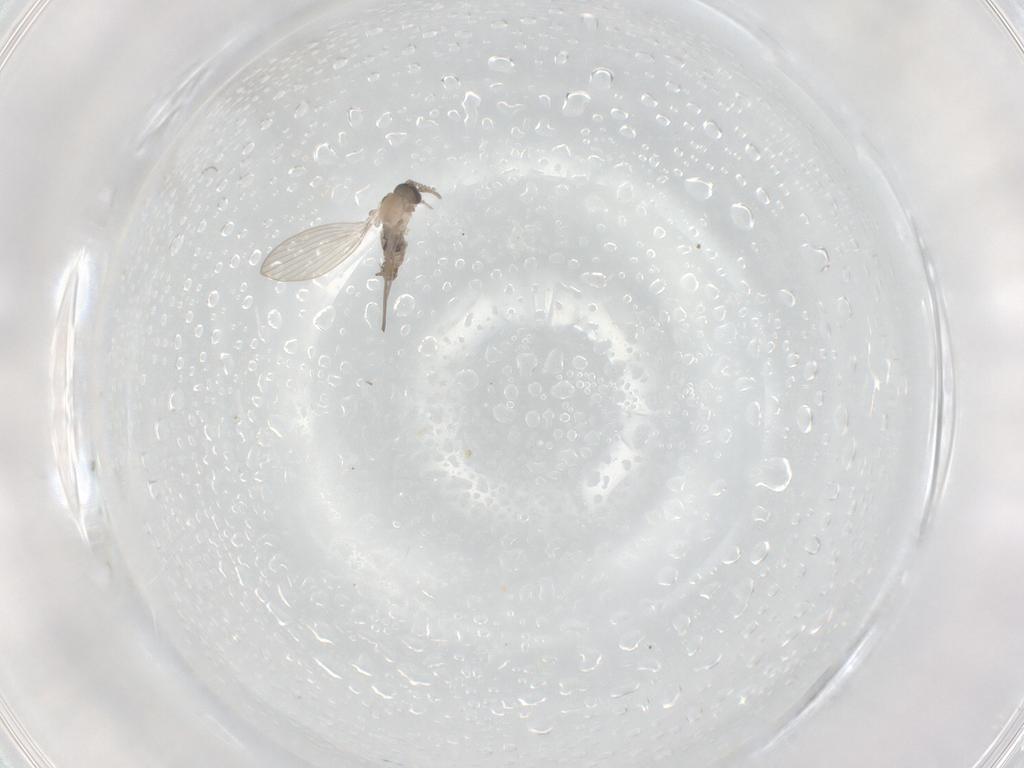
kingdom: Animalia
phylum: Arthropoda
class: Insecta
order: Diptera
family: Psychodidae
